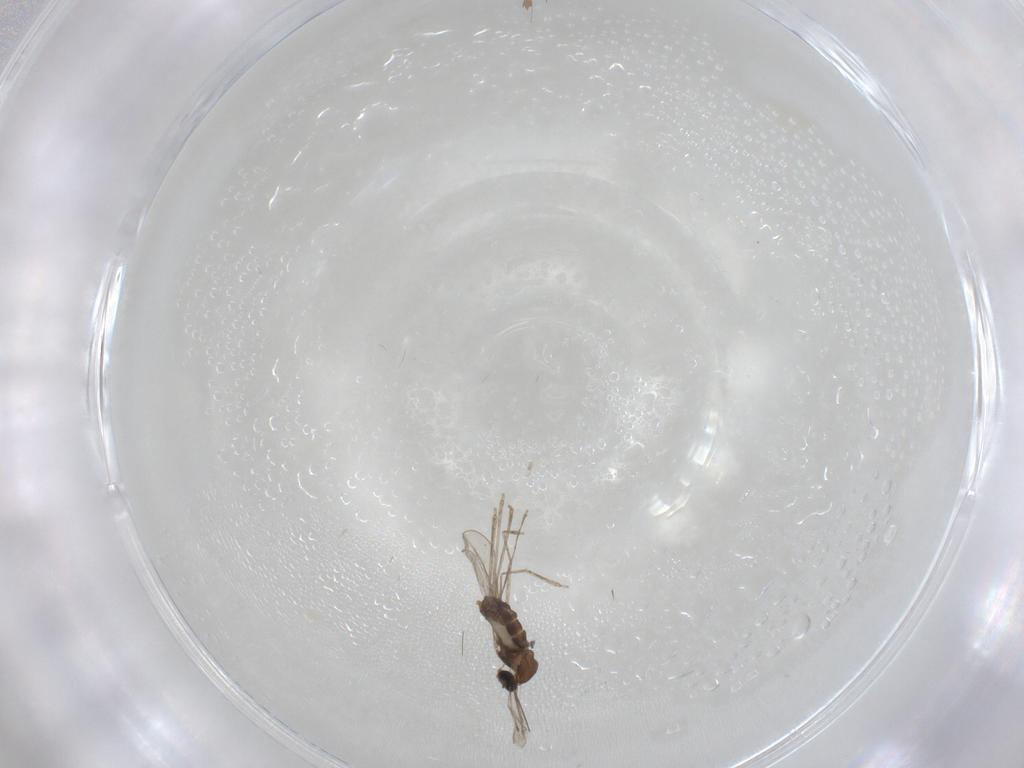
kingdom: Animalia
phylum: Arthropoda
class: Insecta
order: Diptera
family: Cecidomyiidae
